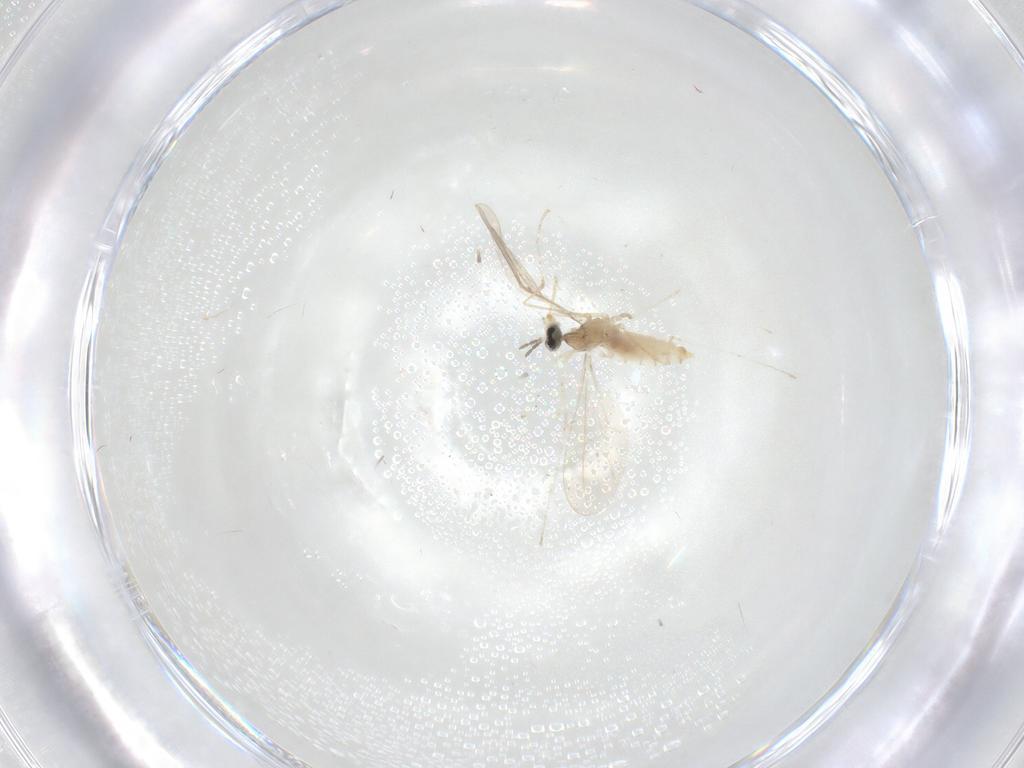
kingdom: Animalia
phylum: Arthropoda
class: Insecta
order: Diptera
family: Cecidomyiidae
